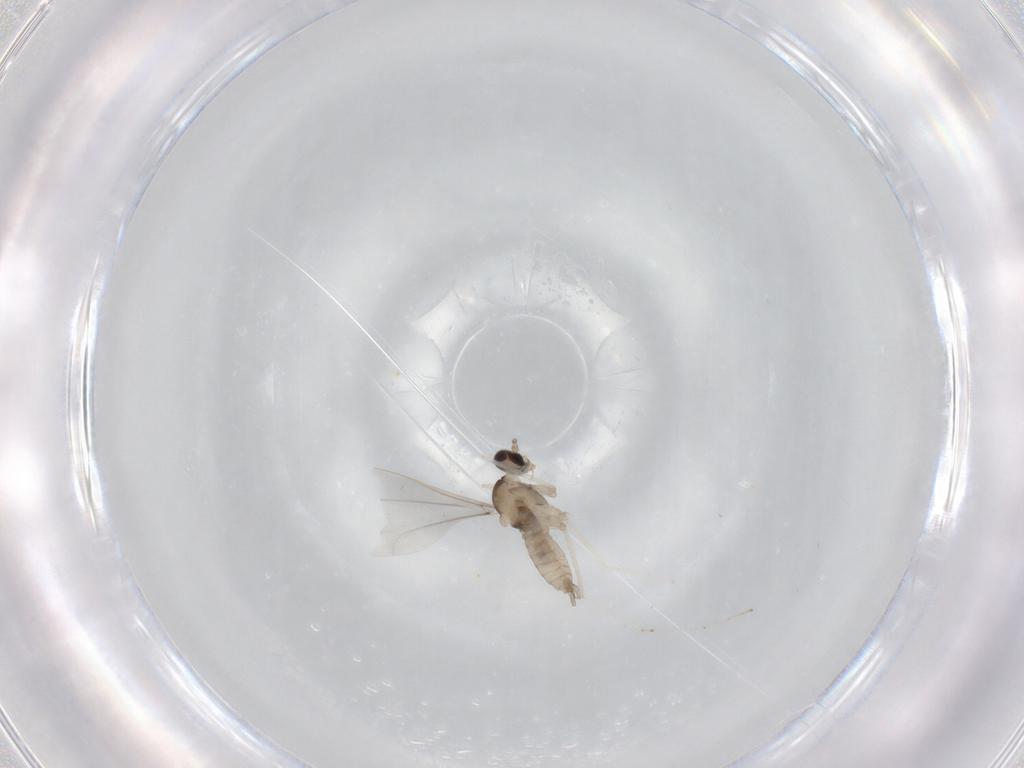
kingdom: Animalia
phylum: Arthropoda
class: Insecta
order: Diptera
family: Cecidomyiidae
